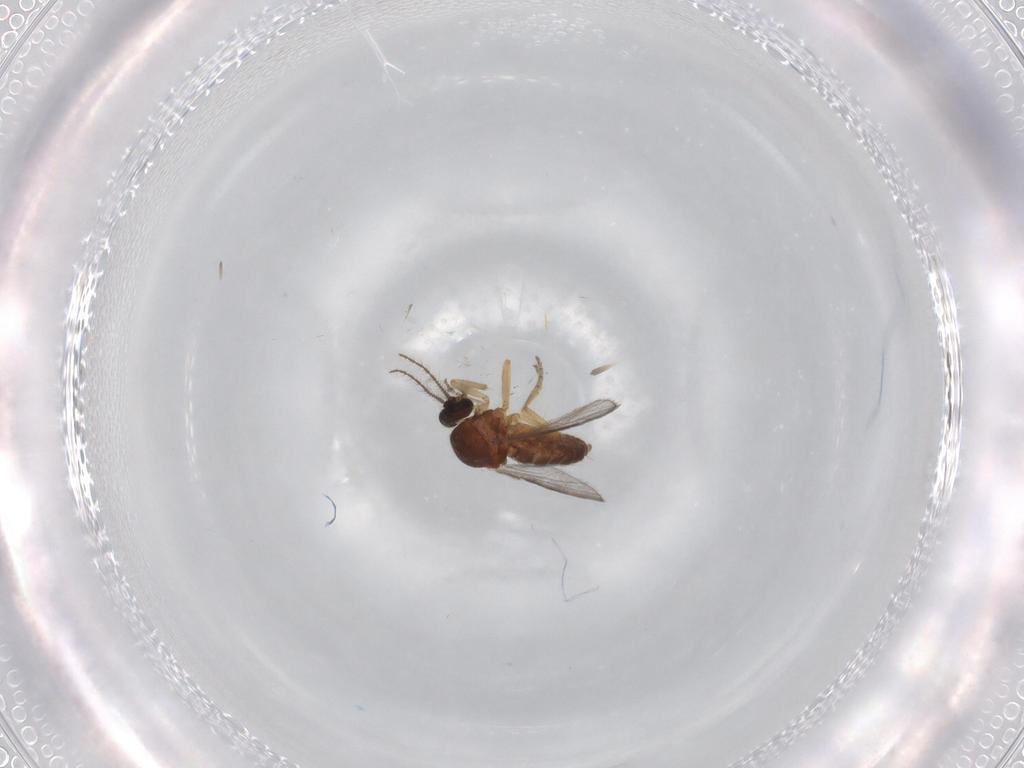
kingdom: Animalia
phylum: Arthropoda
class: Insecta
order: Diptera
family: Ceratopogonidae
